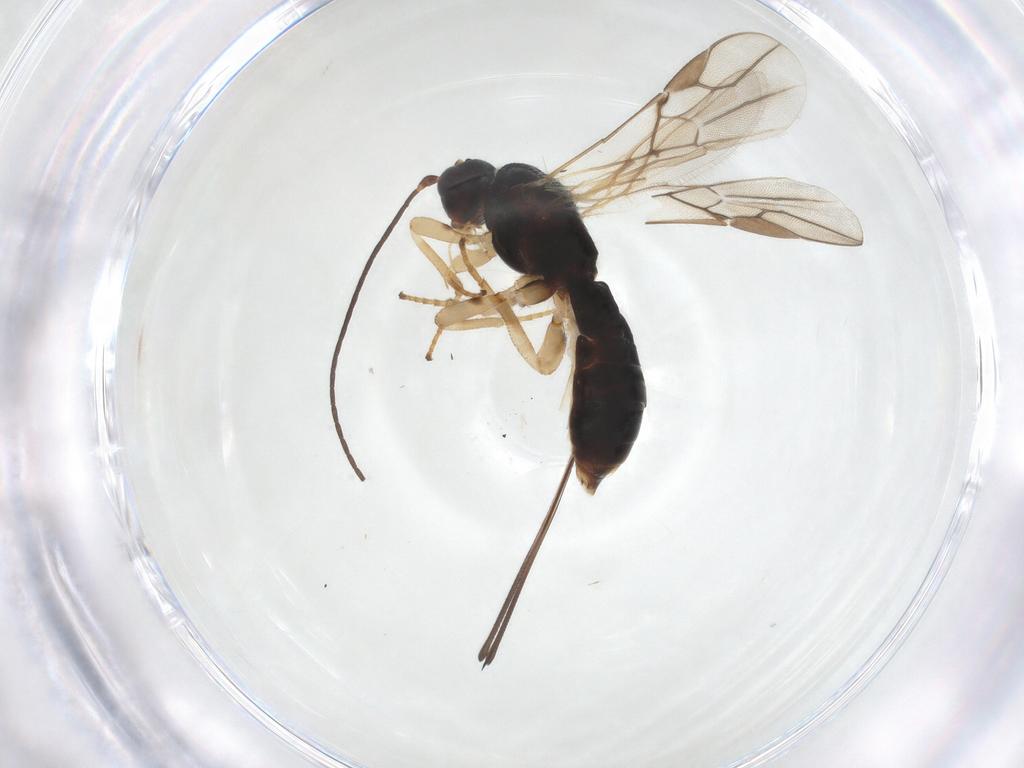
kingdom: Animalia
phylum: Arthropoda
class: Insecta
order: Hymenoptera
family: Braconidae
